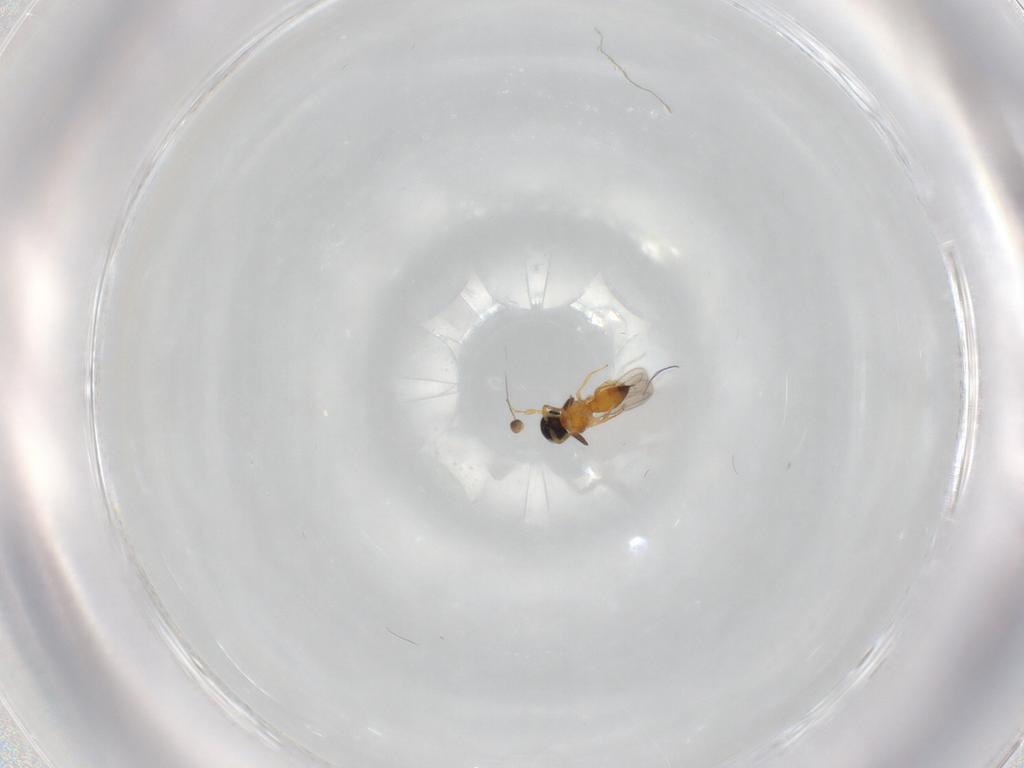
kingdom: Animalia
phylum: Arthropoda
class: Insecta
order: Hymenoptera
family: Scelionidae
